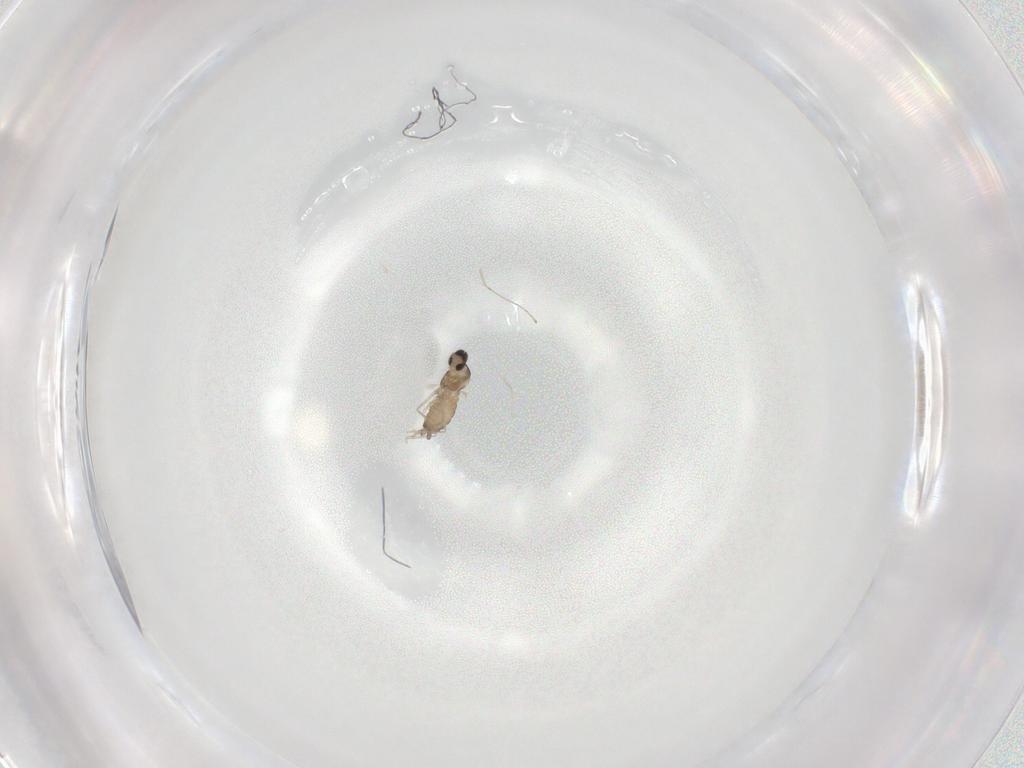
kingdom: Animalia
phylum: Arthropoda
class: Insecta
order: Diptera
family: Cecidomyiidae
